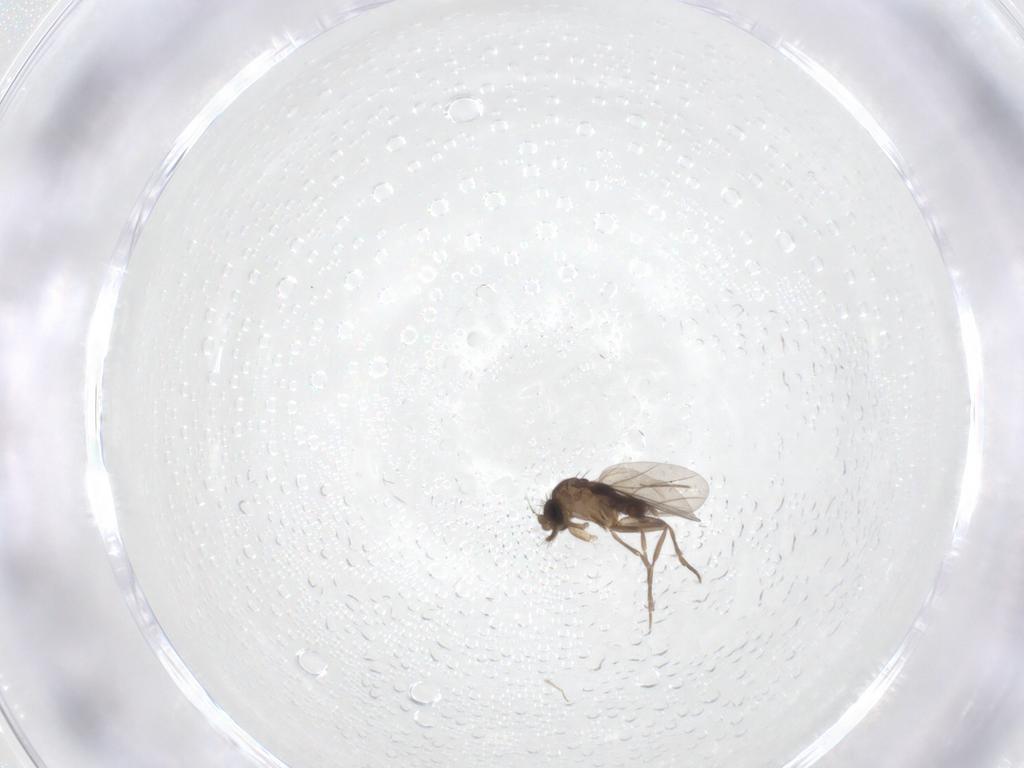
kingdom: Animalia
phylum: Arthropoda
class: Insecta
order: Diptera
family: Phoridae
